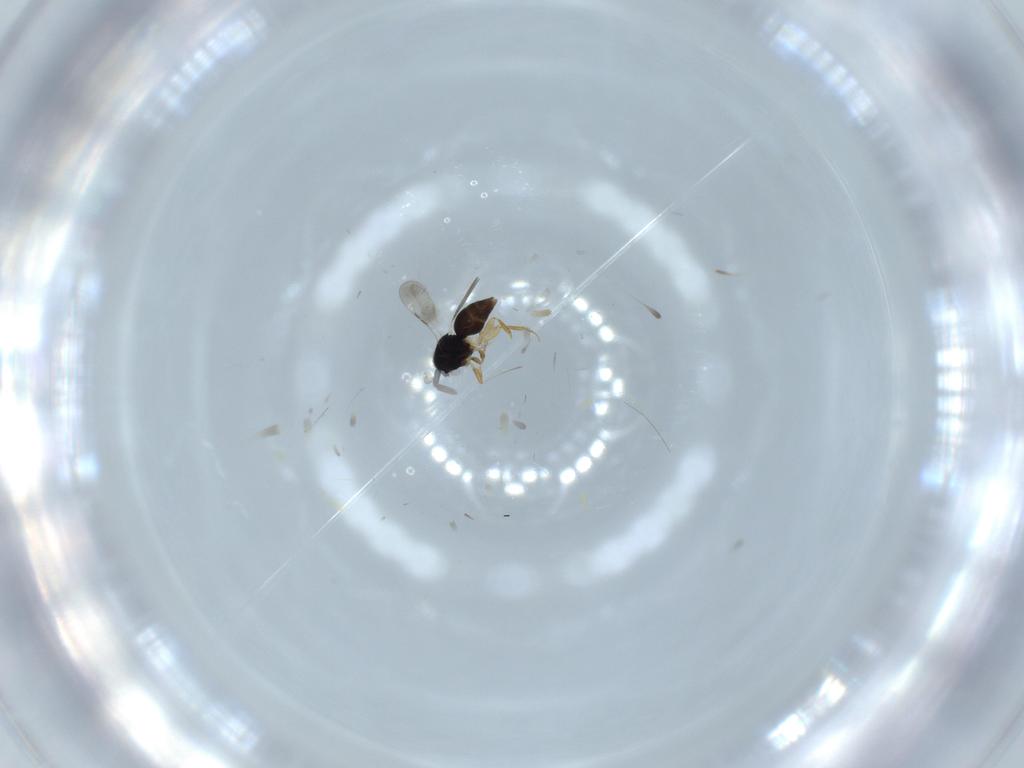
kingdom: Animalia
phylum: Arthropoda
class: Insecta
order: Hymenoptera
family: Ceraphronidae
